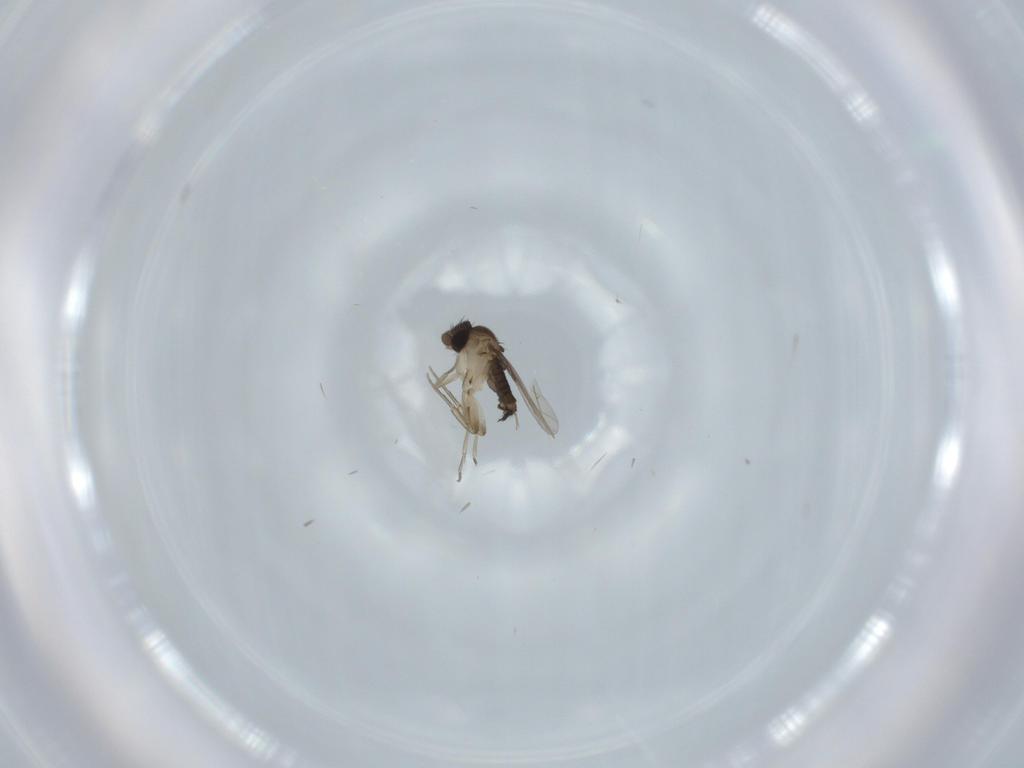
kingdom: Animalia
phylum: Arthropoda
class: Insecta
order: Diptera
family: Phoridae
